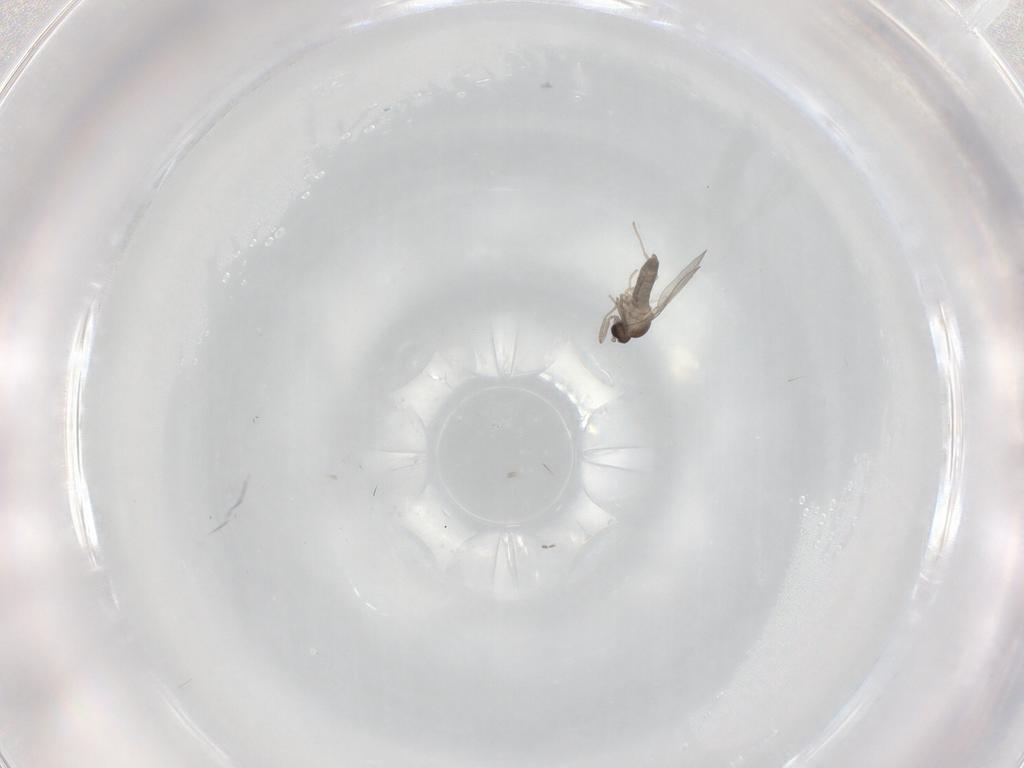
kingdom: Animalia
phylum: Arthropoda
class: Insecta
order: Diptera
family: Cecidomyiidae
